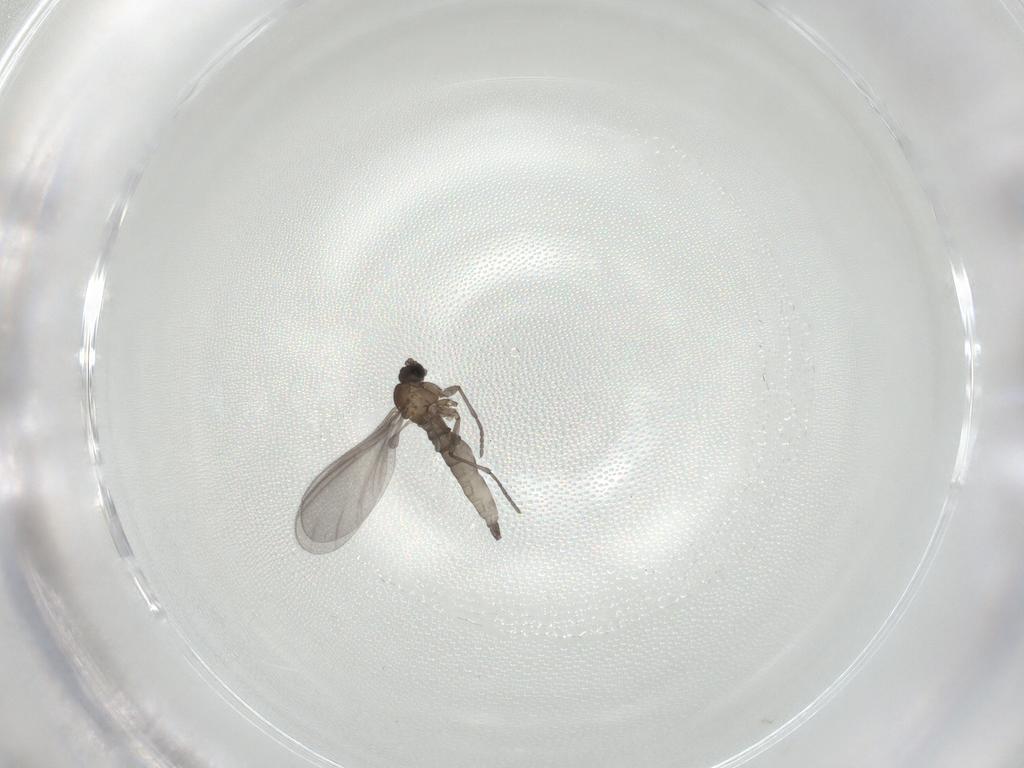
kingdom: Animalia
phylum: Arthropoda
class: Insecta
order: Diptera
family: Sciaridae
